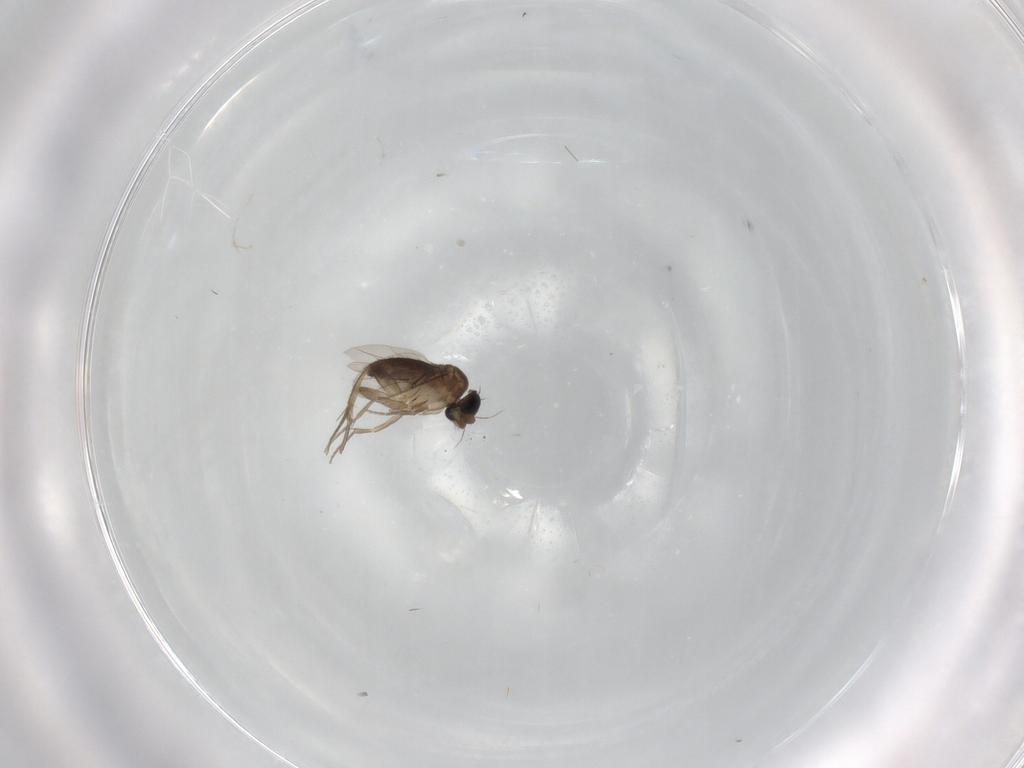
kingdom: Animalia
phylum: Arthropoda
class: Insecta
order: Diptera
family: Phoridae
